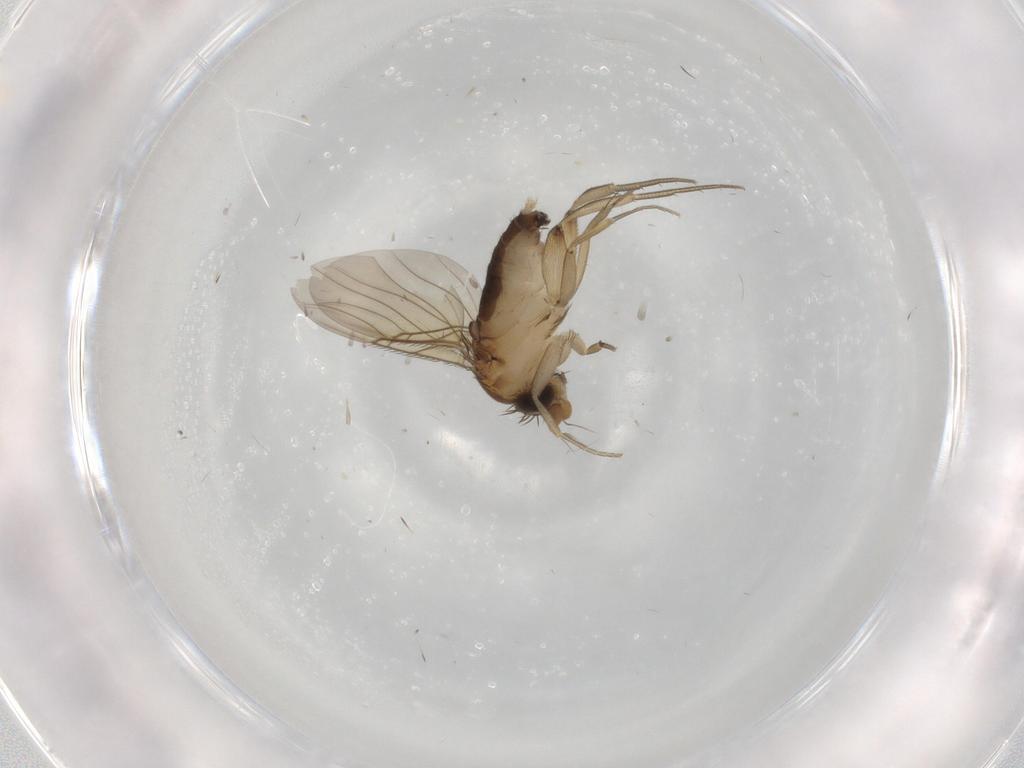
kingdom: Animalia
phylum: Arthropoda
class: Insecta
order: Diptera
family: Phoridae
